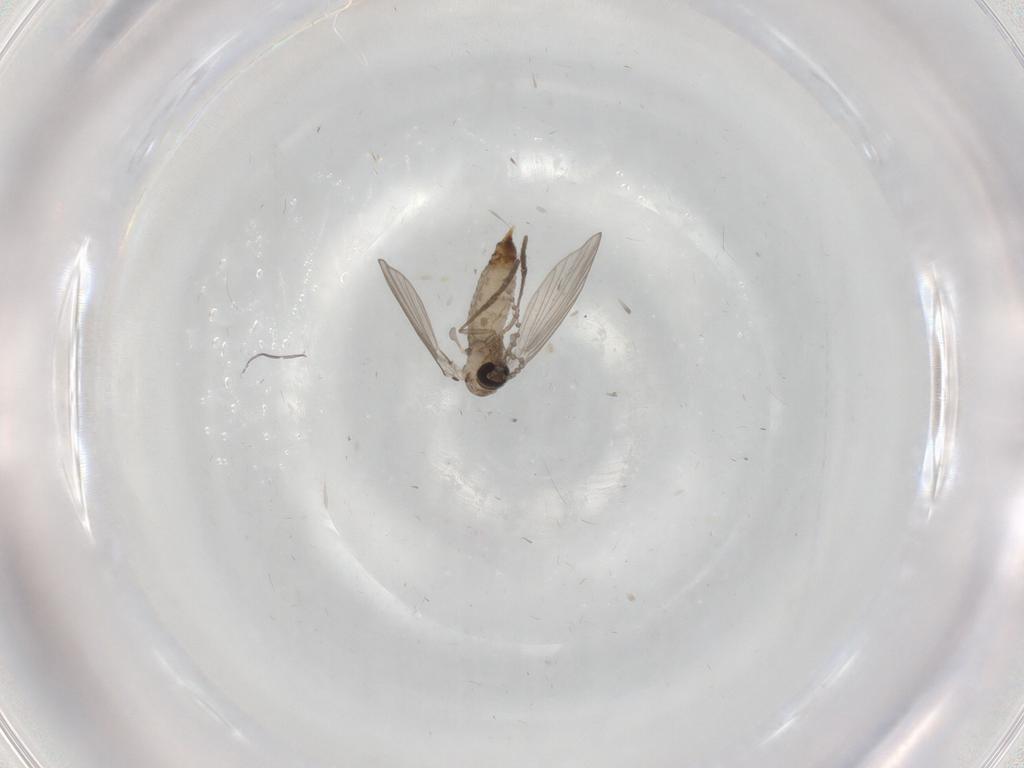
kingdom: Animalia
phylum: Arthropoda
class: Insecta
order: Diptera
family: Psychodidae
